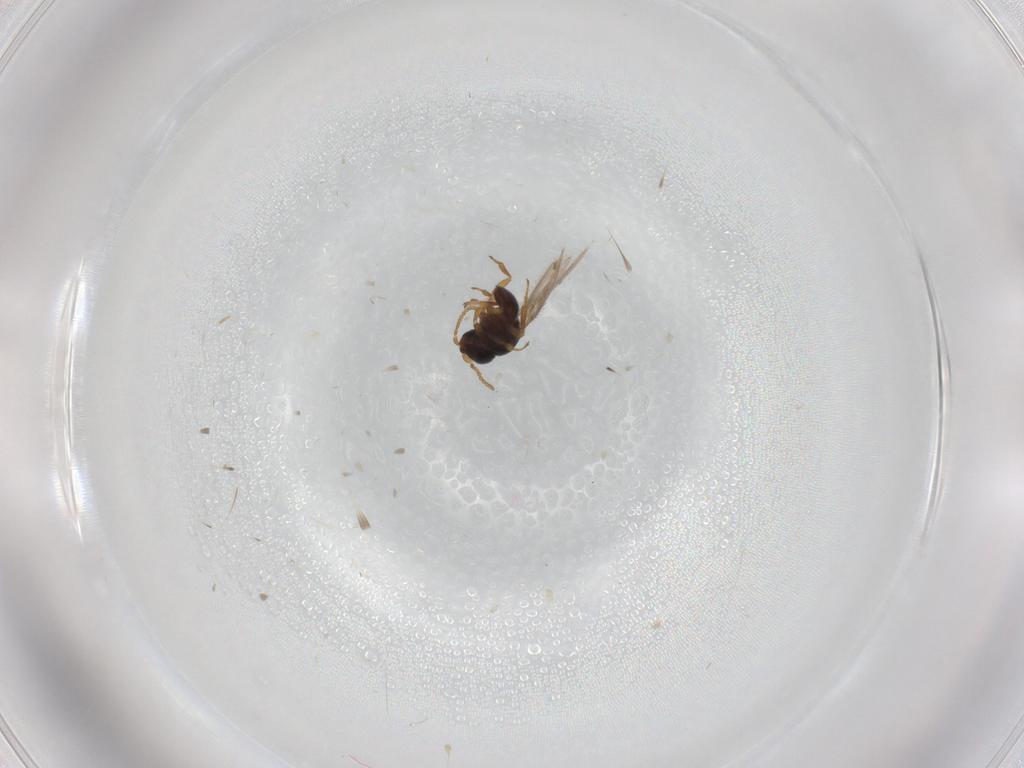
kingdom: Animalia
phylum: Arthropoda
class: Insecta
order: Hymenoptera
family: Scelionidae
